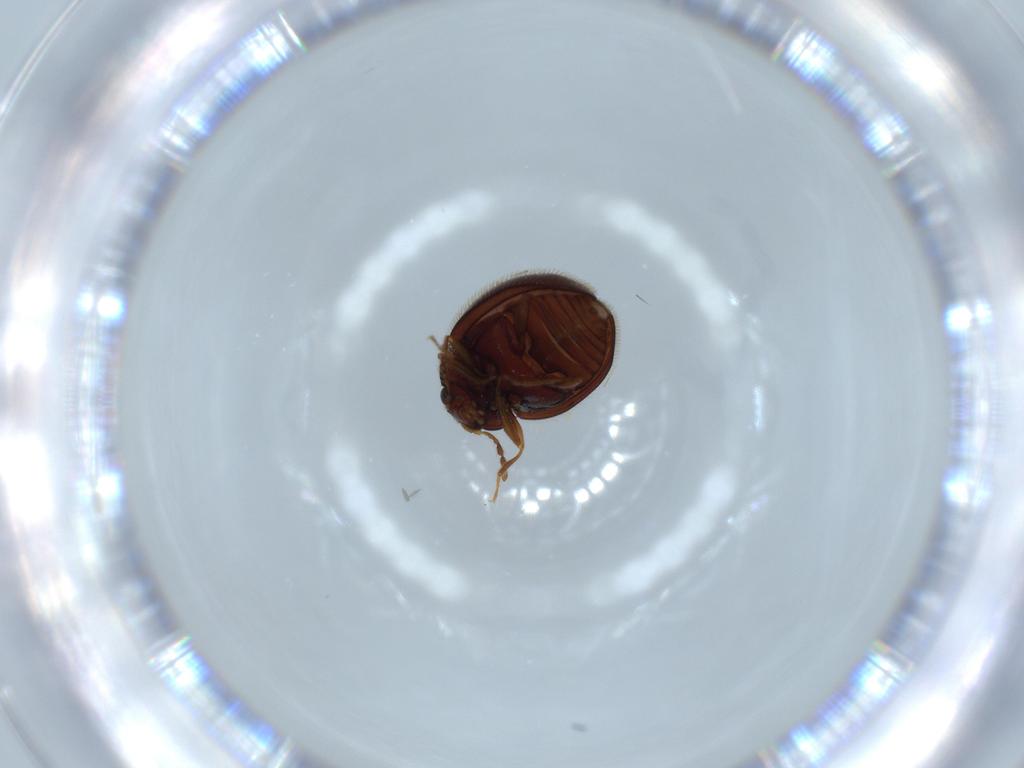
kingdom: Animalia
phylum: Arthropoda
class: Insecta
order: Coleoptera
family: Anamorphidae
